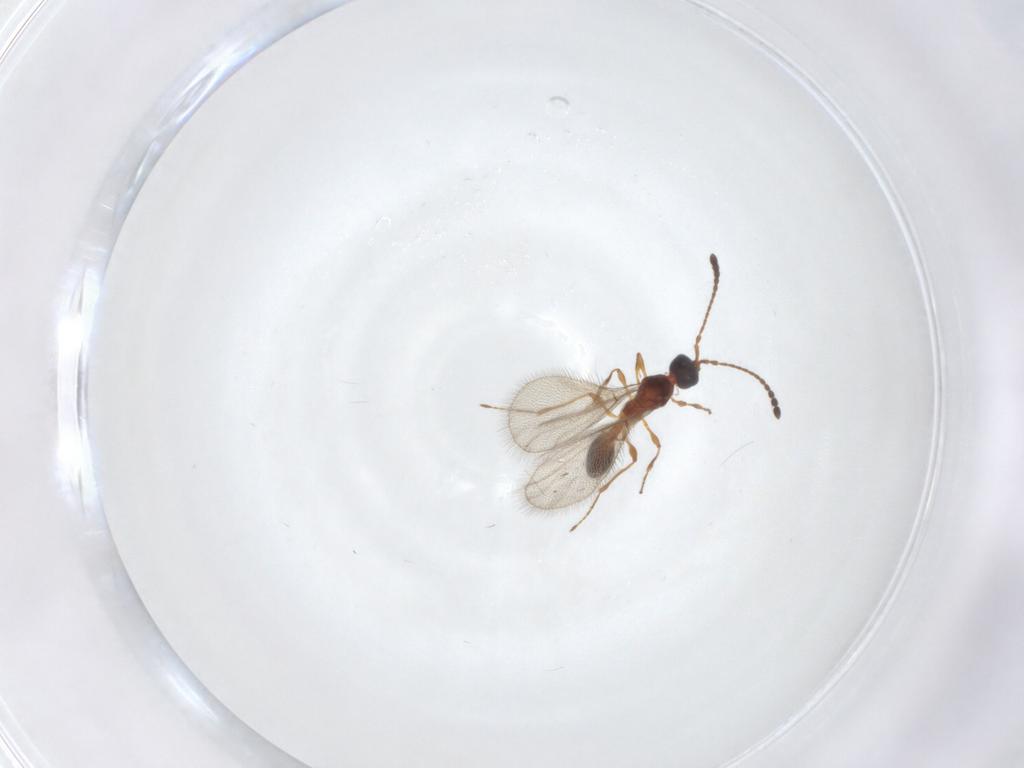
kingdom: Animalia
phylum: Arthropoda
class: Insecta
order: Hymenoptera
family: Diapriidae
